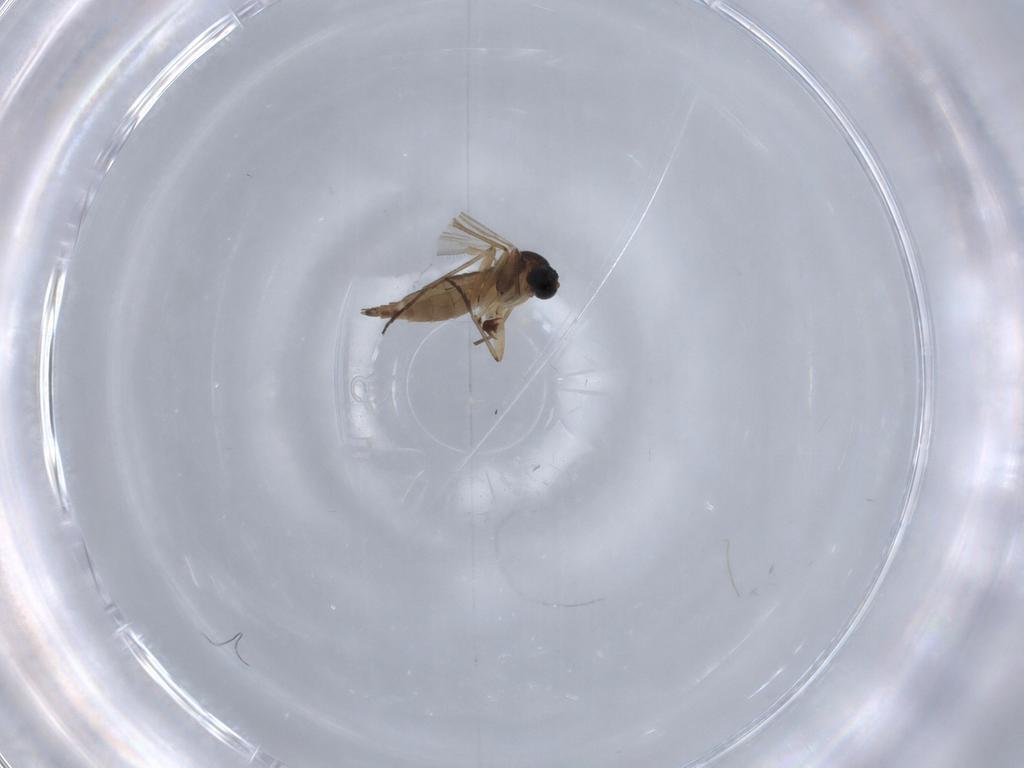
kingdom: Animalia
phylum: Arthropoda
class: Insecta
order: Diptera
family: Sciaridae
